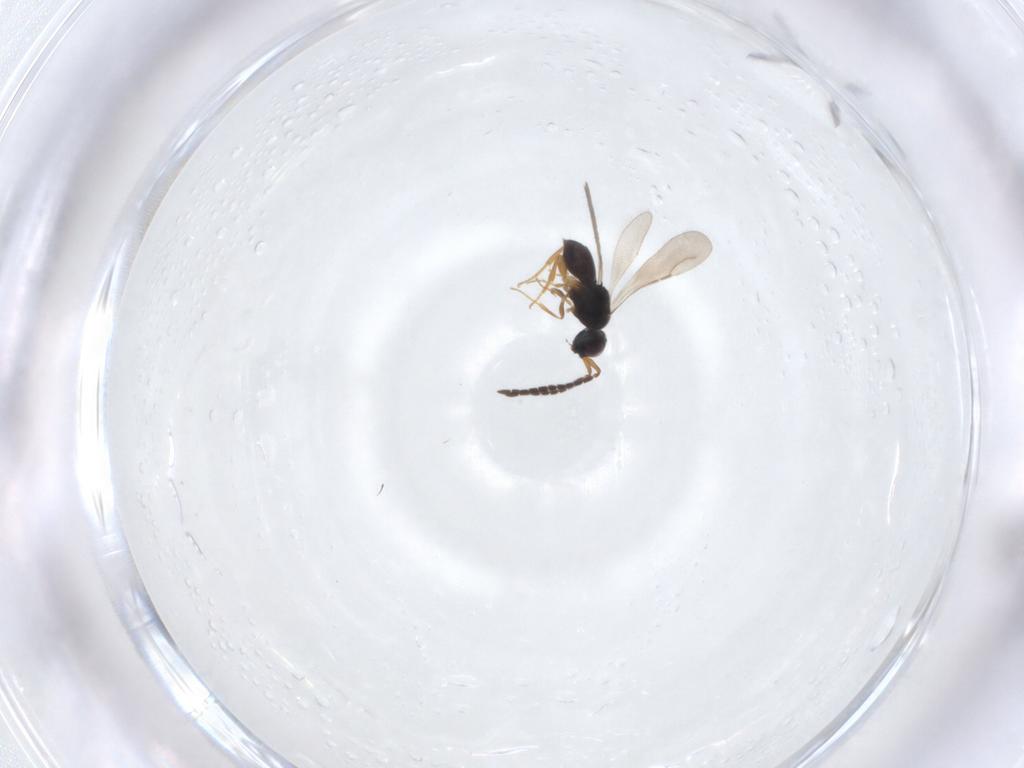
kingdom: Animalia
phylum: Arthropoda
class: Insecta
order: Hymenoptera
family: Ceraphronidae
